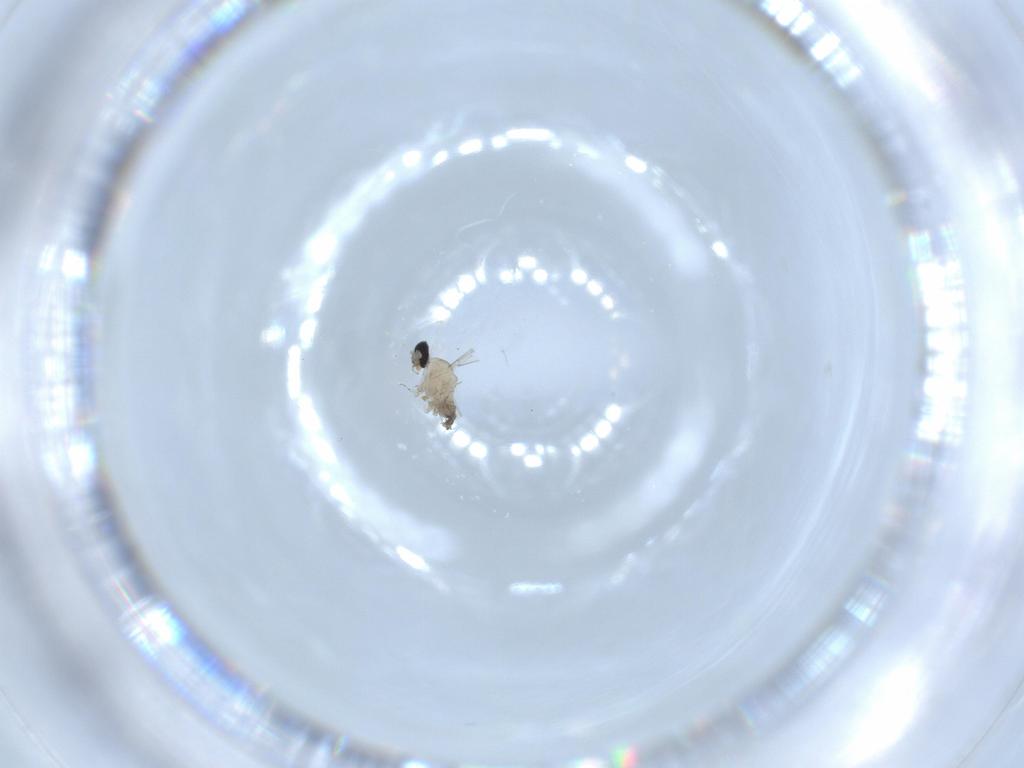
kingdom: Animalia
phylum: Arthropoda
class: Insecta
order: Diptera
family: Cecidomyiidae
